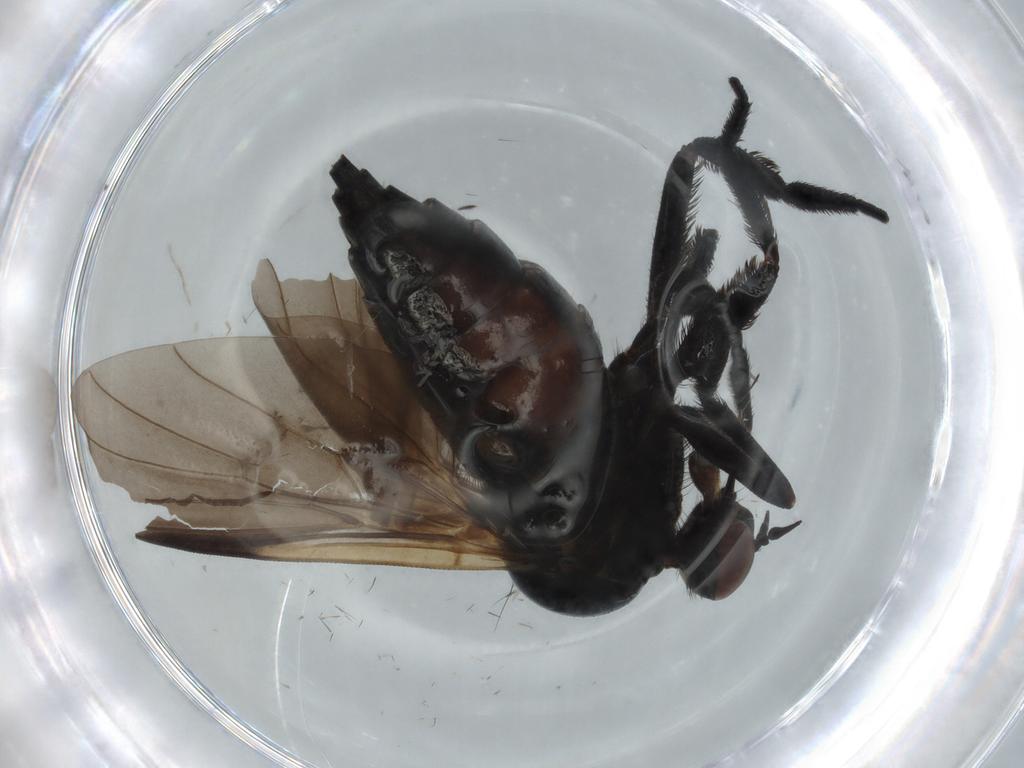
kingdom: Animalia
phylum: Arthropoda
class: Insecta
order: Diptera
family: Empididae
